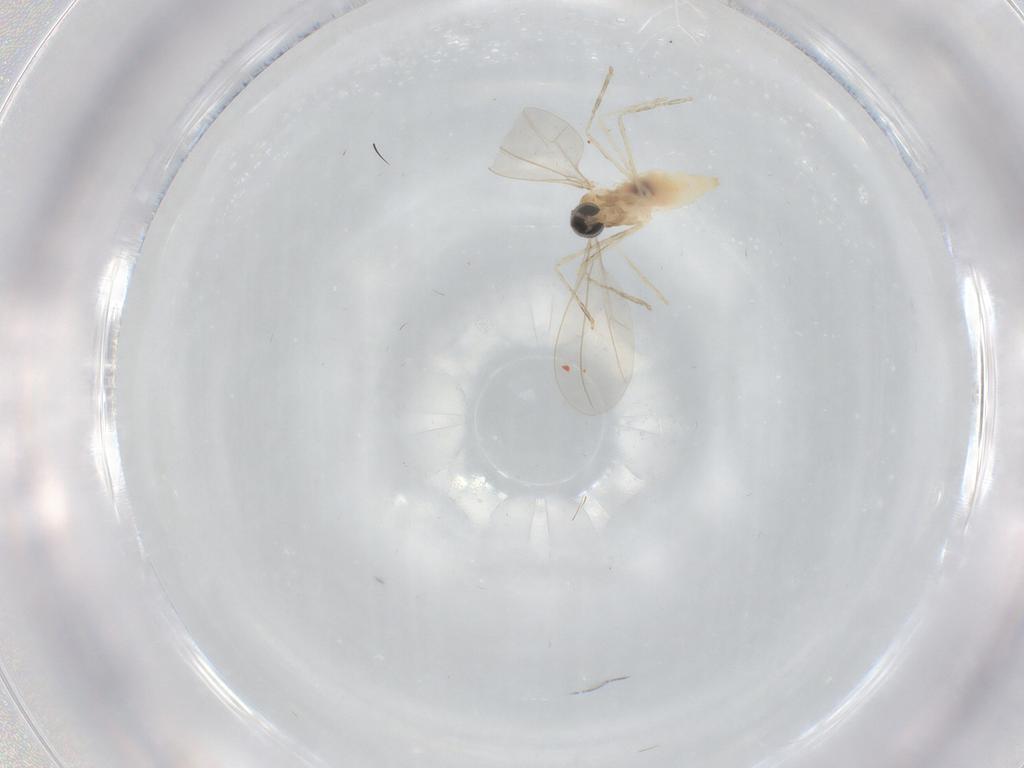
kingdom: Animalia
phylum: Arthropoda
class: Insecta
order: Diptera
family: Cecidomyiidae
